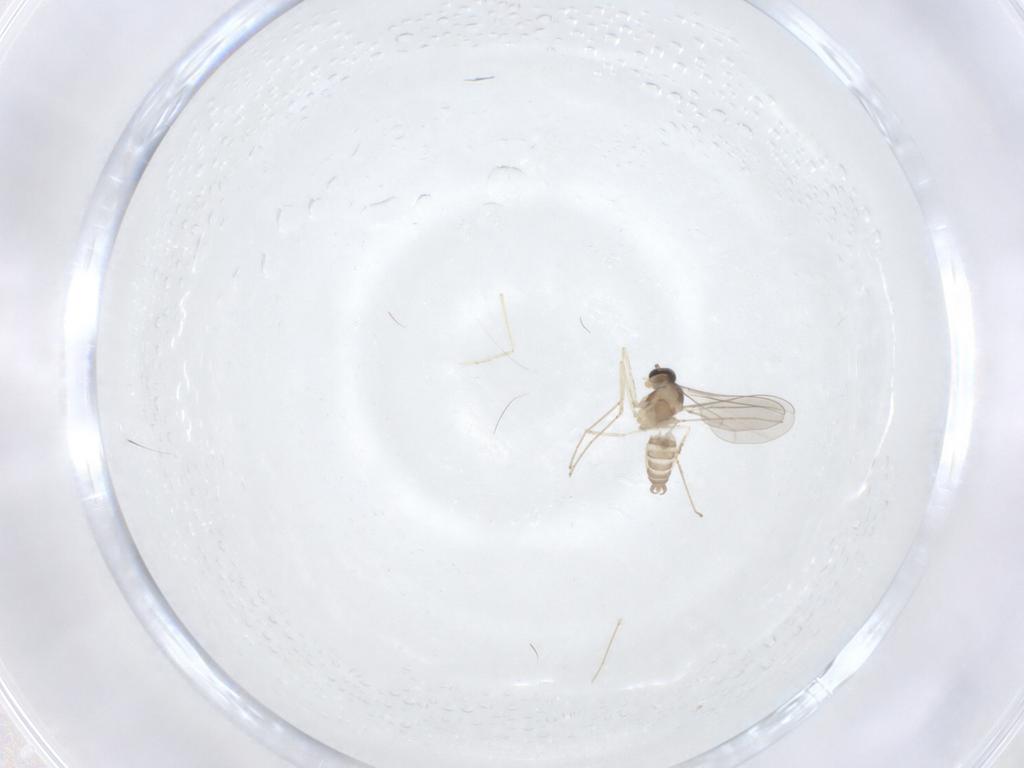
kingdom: Animalia
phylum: Arthropoda
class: Insecta
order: Diptera
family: Cecidomyiidae
